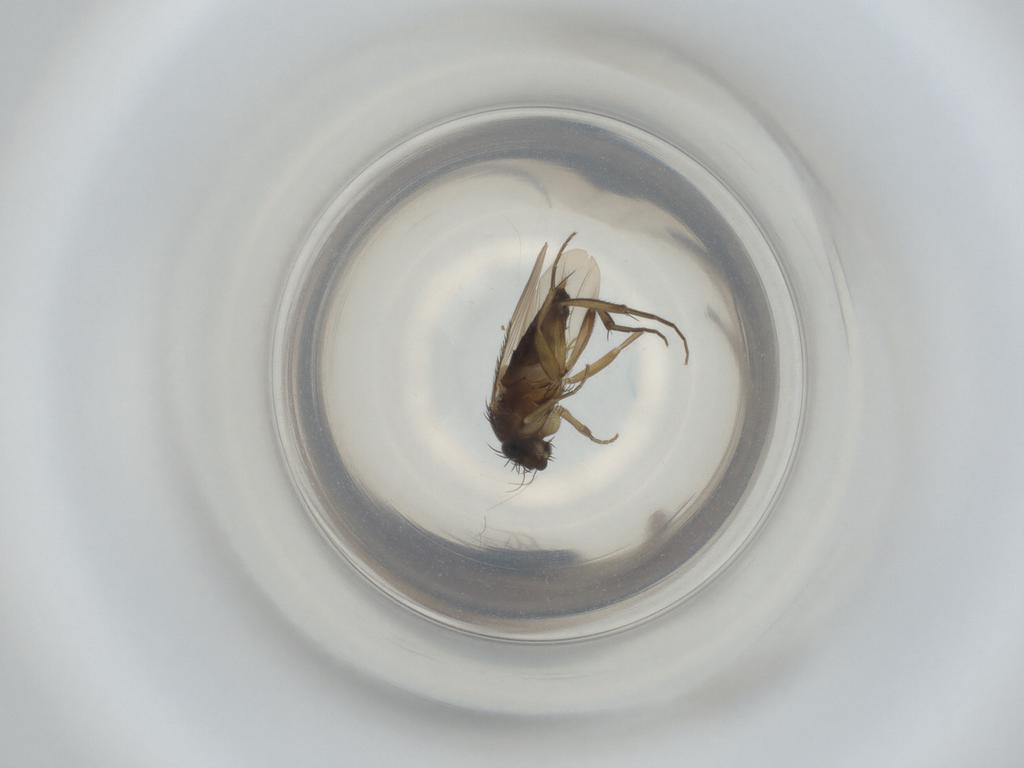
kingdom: Animalia
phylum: Arthropoda
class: Insecta
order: Diptera
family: Phoridae
